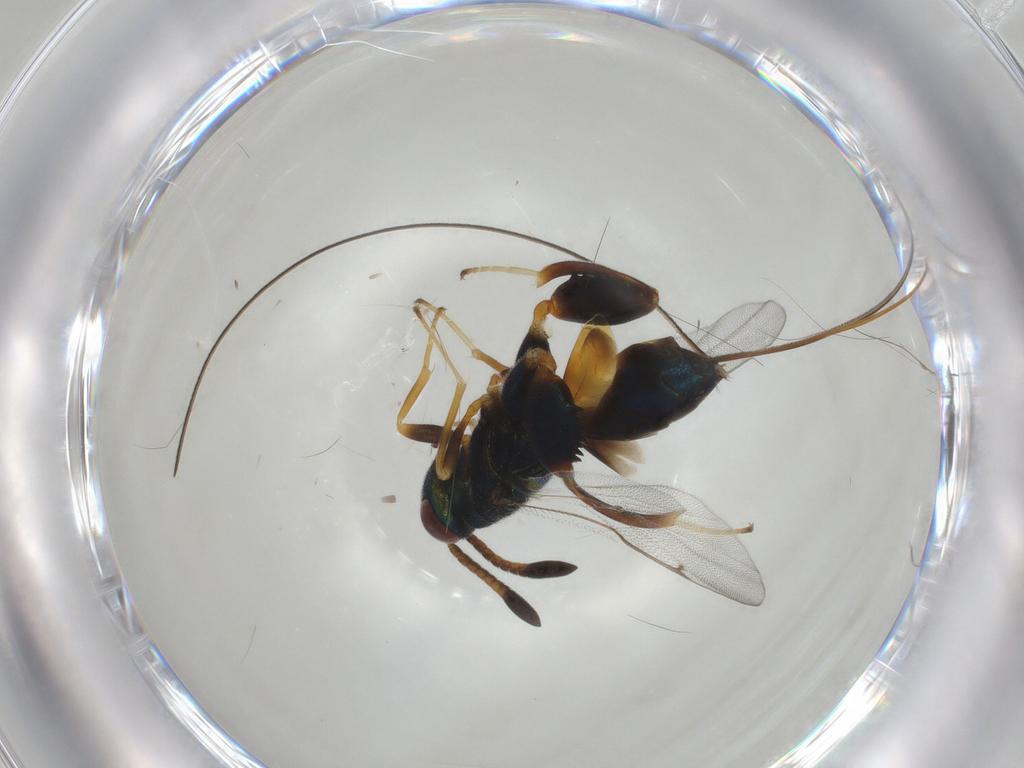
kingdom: Animalia
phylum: Arthropoda
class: Insecta
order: Hymenoptera
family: Torymidae
